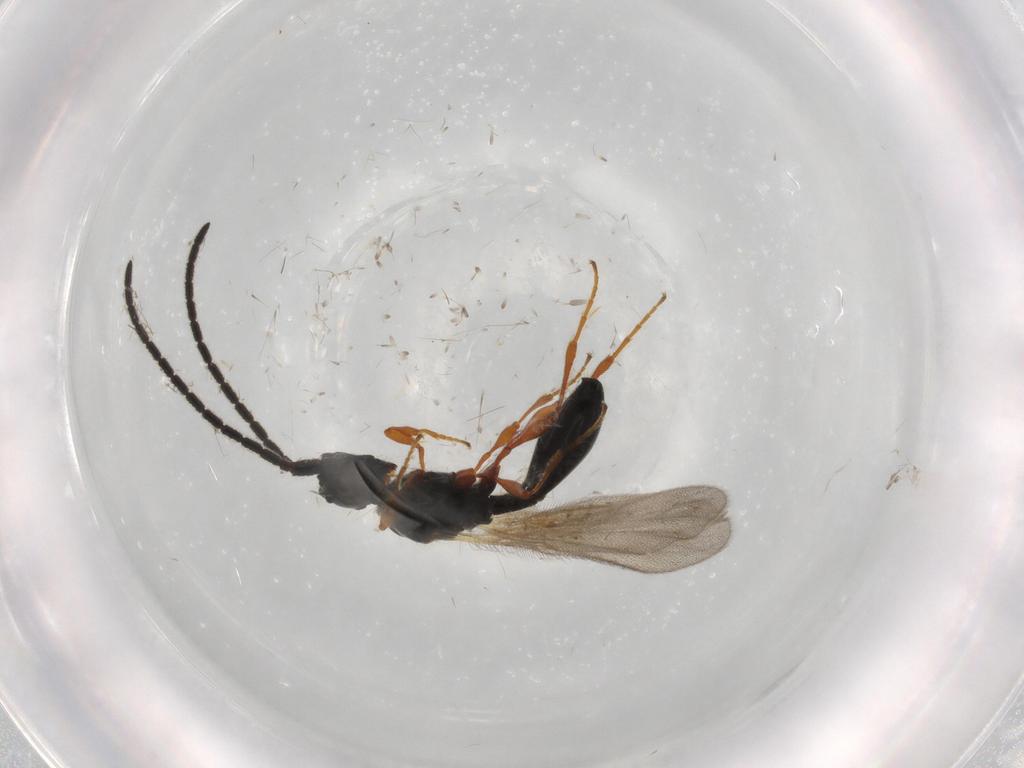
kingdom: Animalia
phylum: Arthropoda
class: Insecta
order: Hymenoptera
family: Diapriidae
